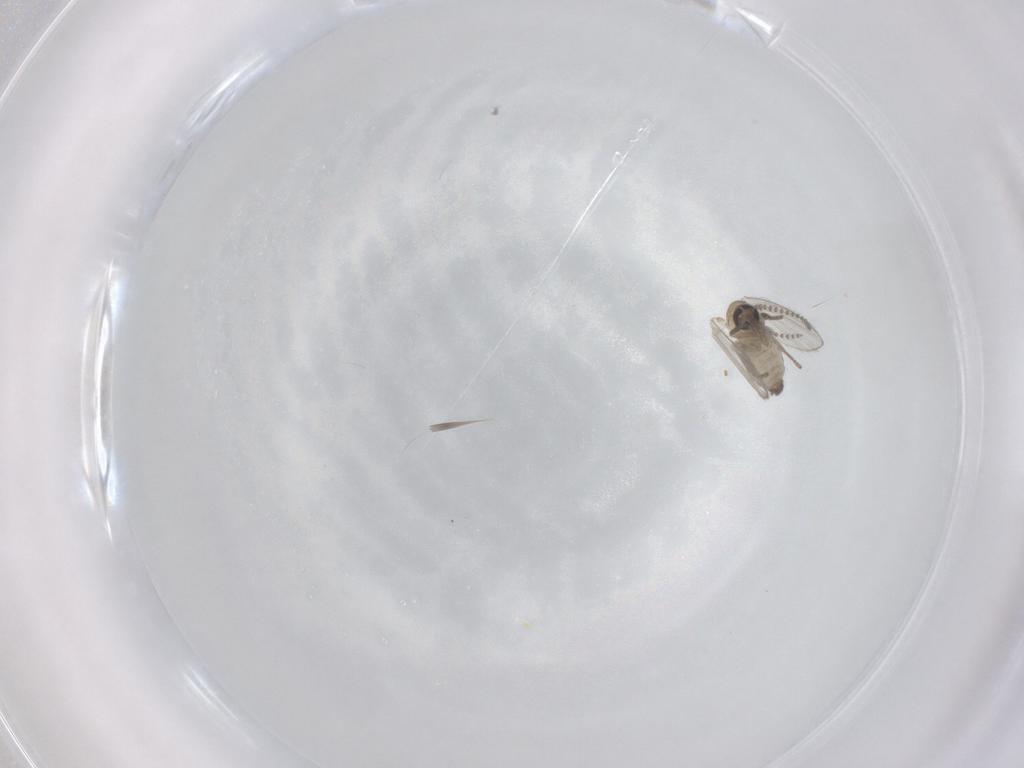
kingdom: Animalia
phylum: Arthropoda
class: Insecta
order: Diptera
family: Psychodidae
